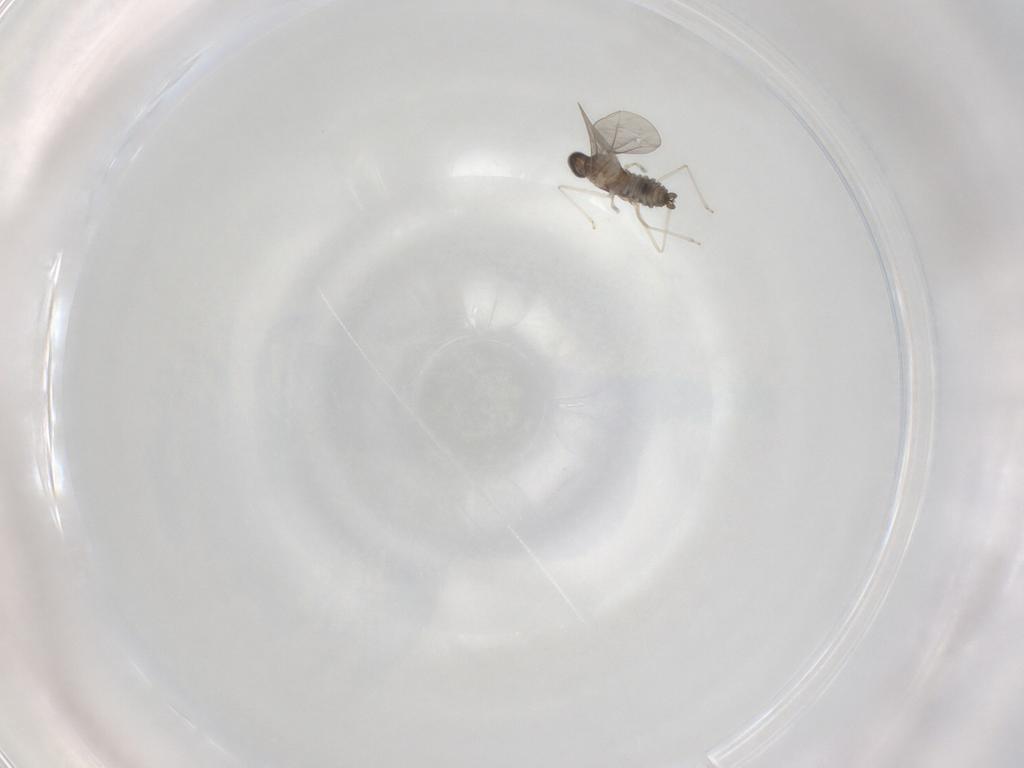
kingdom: Animalia
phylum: Arthropoda
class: Insecta
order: Diptera
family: Cecidomyiidae
